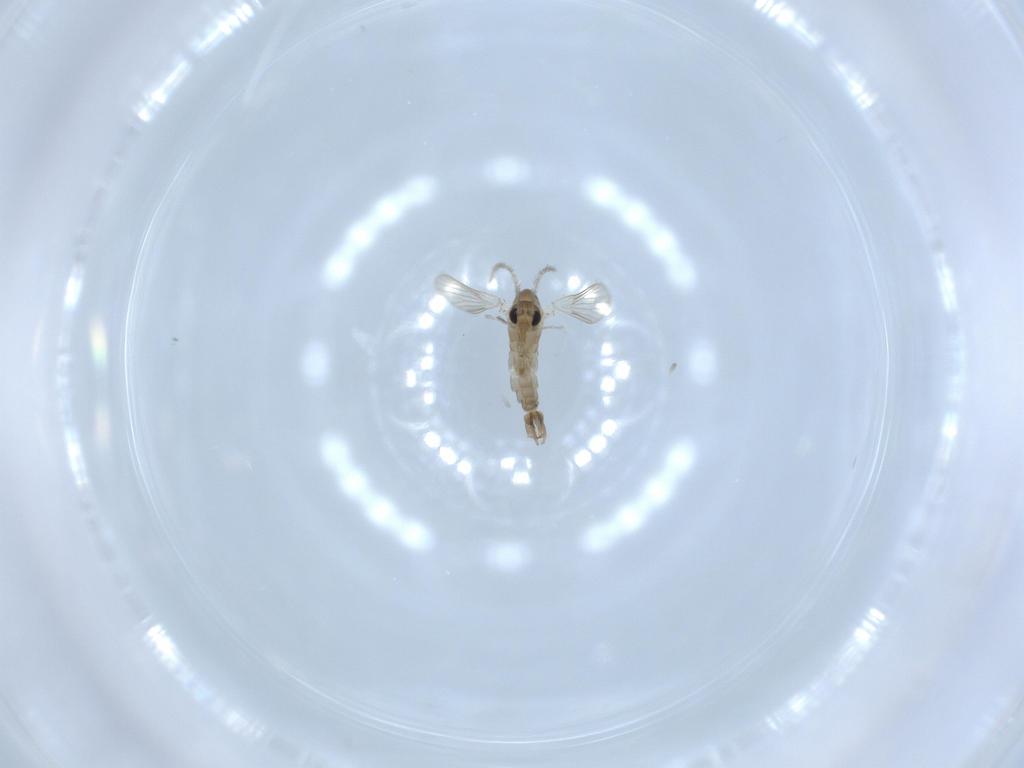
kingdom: Animalia
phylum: Arthropoda
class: Insecta
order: Diptera
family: Psychodidae
